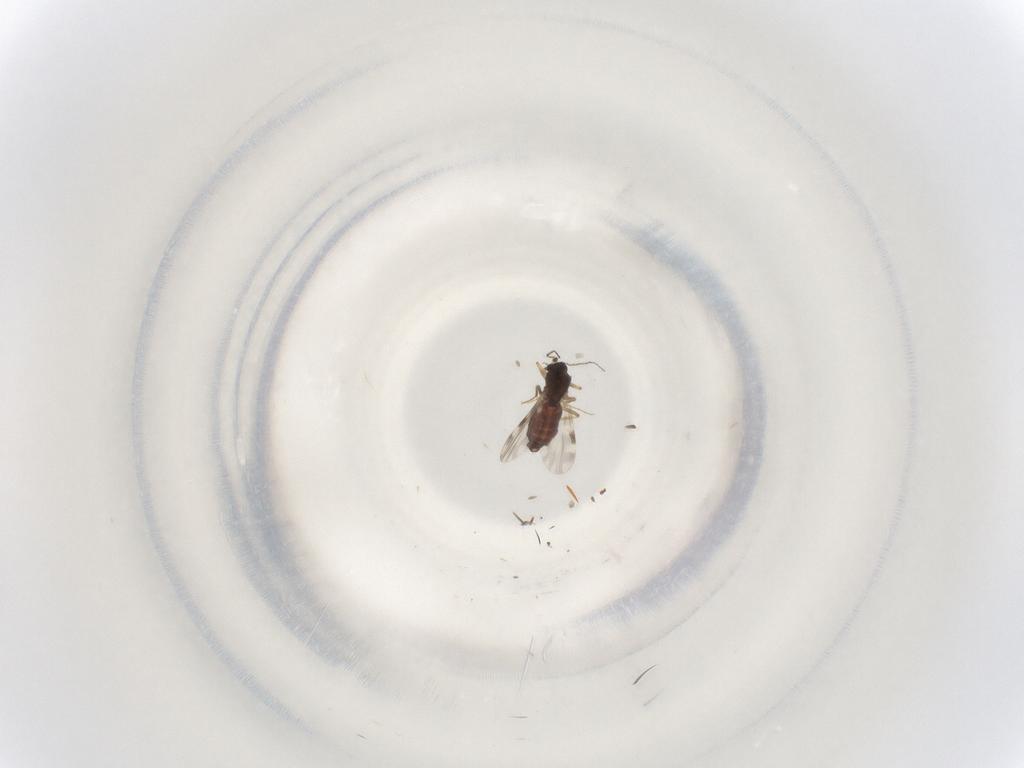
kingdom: Animalia
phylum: Arthropoda
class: Insecta
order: Diptera
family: Ceratopogonidae
